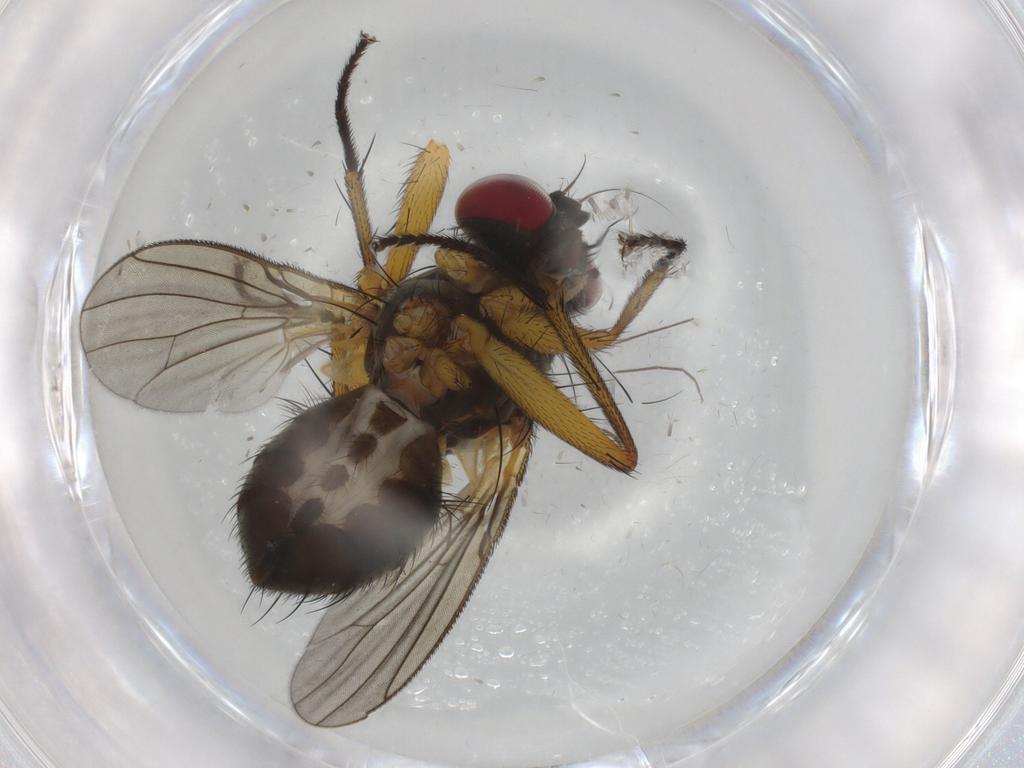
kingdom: Animalia
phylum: Arthropoda
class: Insecta
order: Diptera
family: Muscidae
